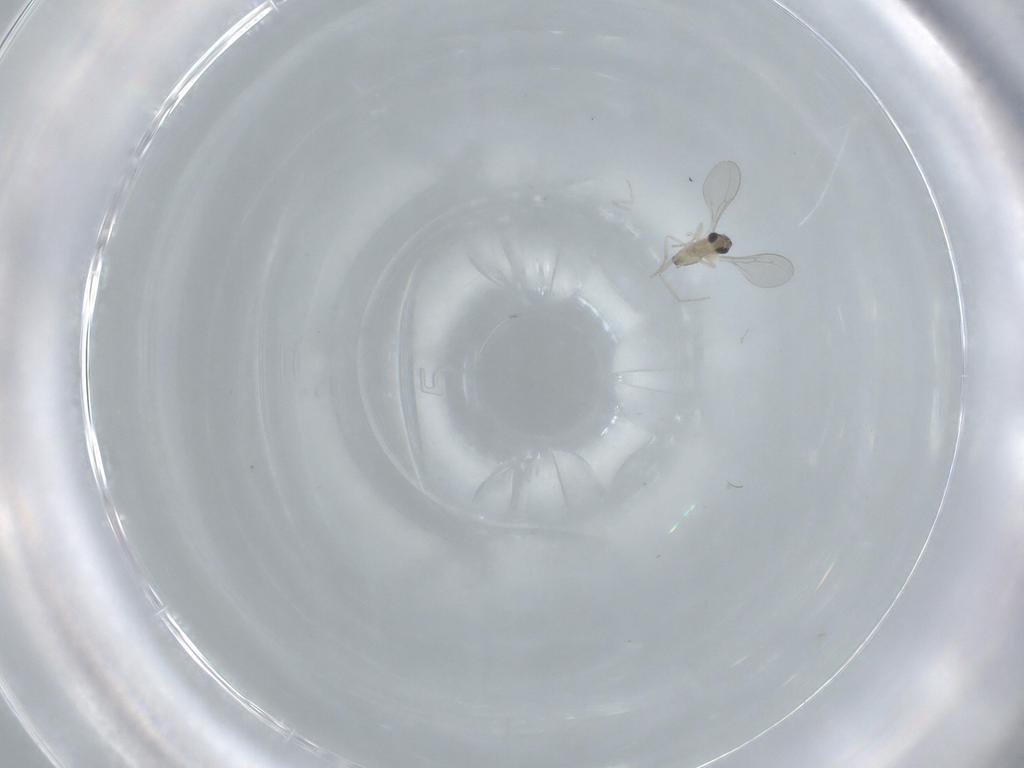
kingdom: Animalia
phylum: Arthropoda
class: Insecta
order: Diptera
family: Cecidomyiidae
